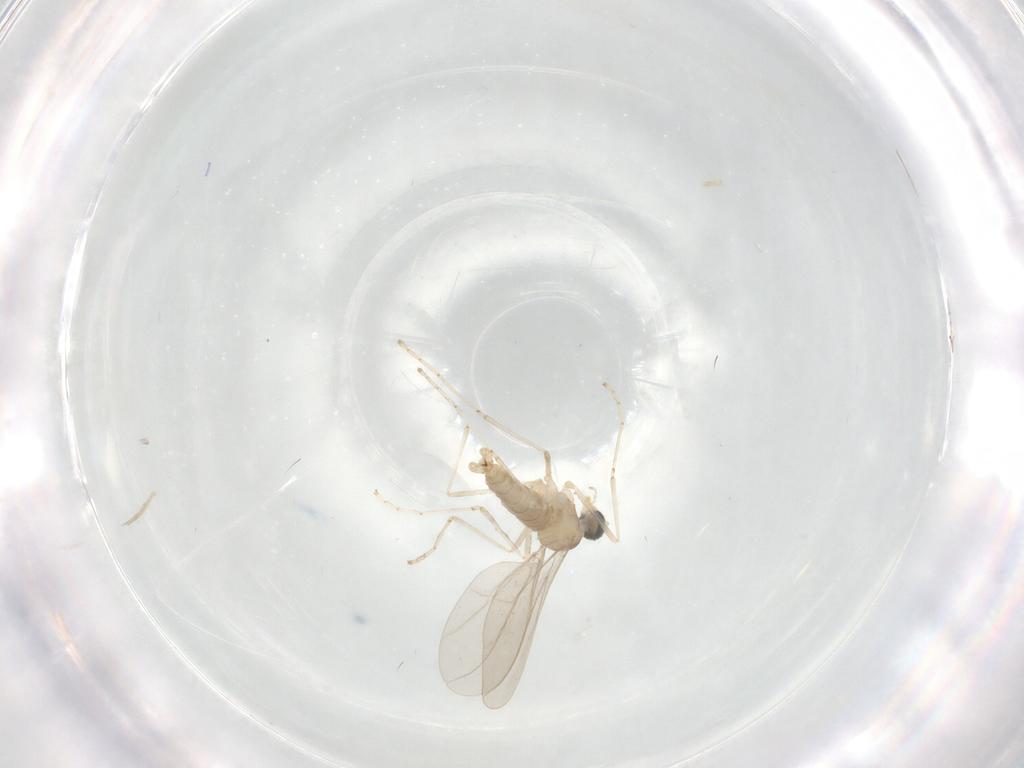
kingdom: Animalia
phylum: Arthropoda
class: Insecta
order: Diptera
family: Cecidomyiidae
